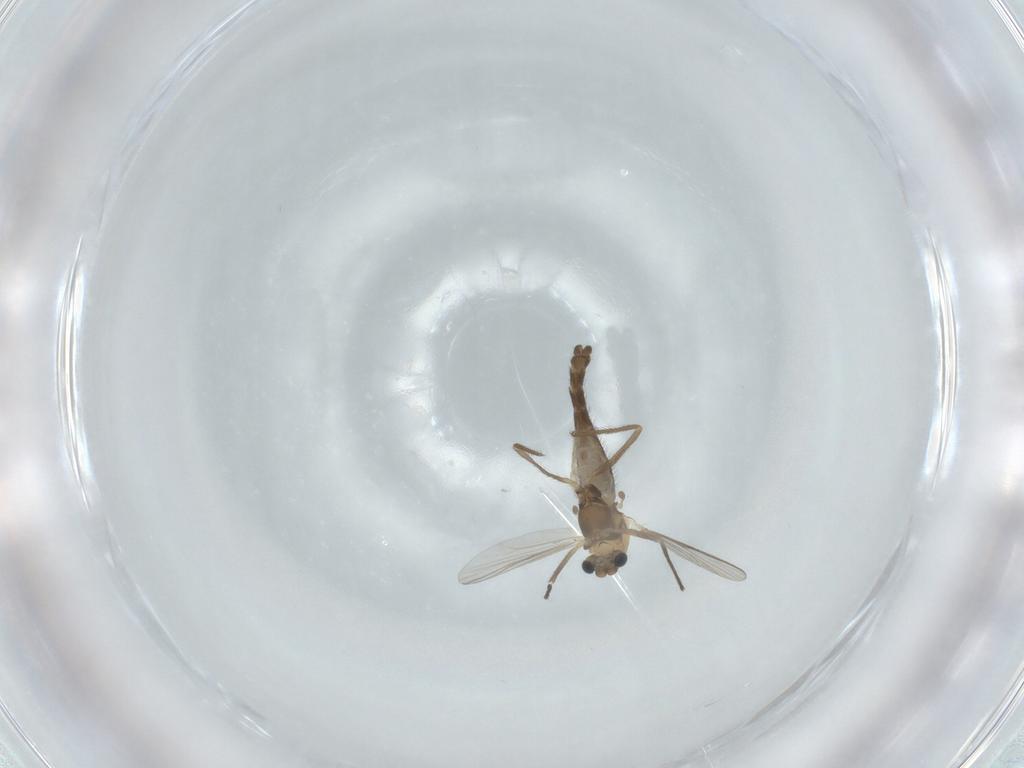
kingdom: Animalia
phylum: Arthropoda
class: Insecta
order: Diptera
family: Chironomidae
